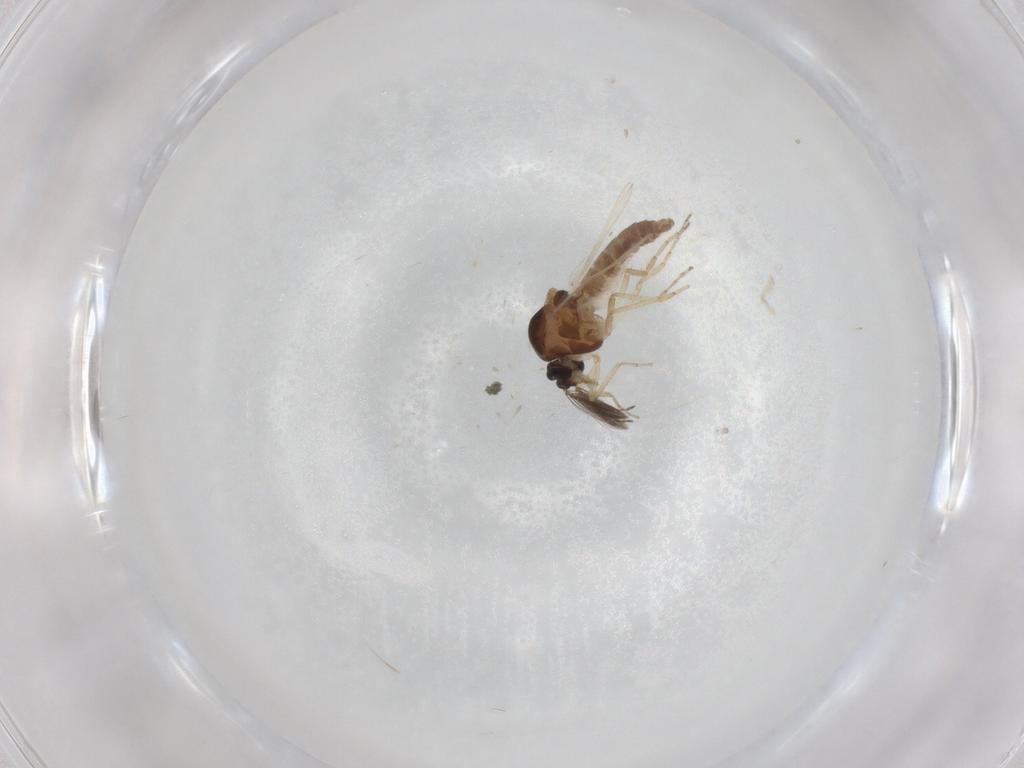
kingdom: Animalia
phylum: Arthropoda
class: Insecta
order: Diptera
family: Ceratopogonidae
